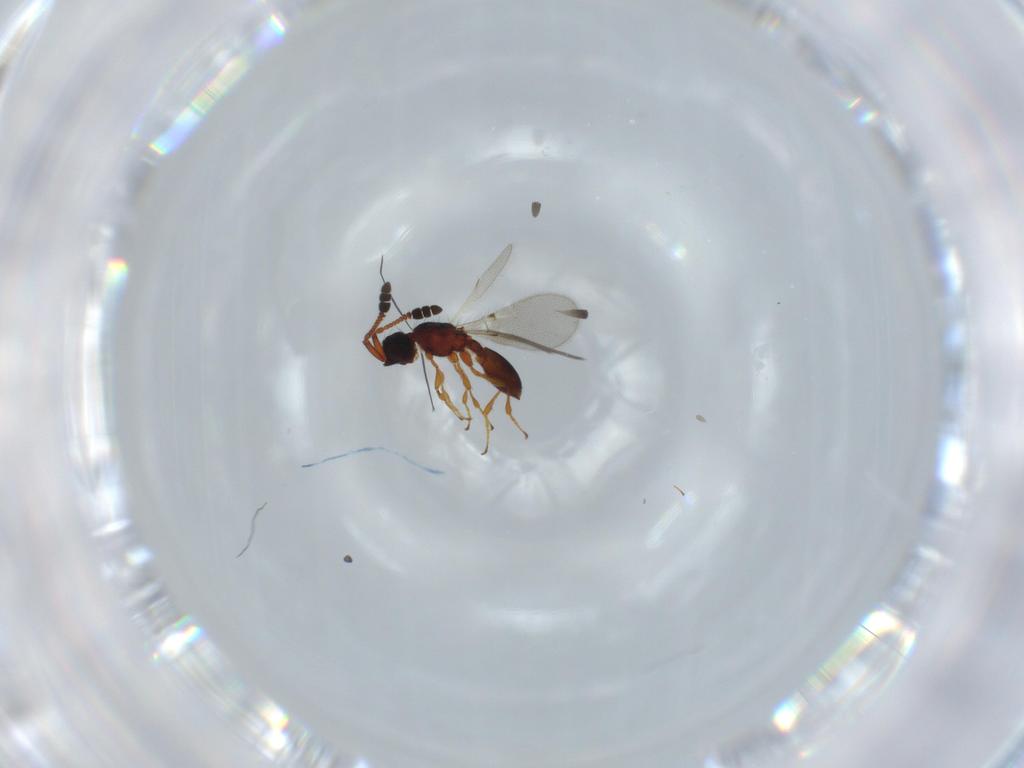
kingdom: Animalia
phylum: Arthropoda
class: Insecta
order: Hymenoptera
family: Diapriidae
